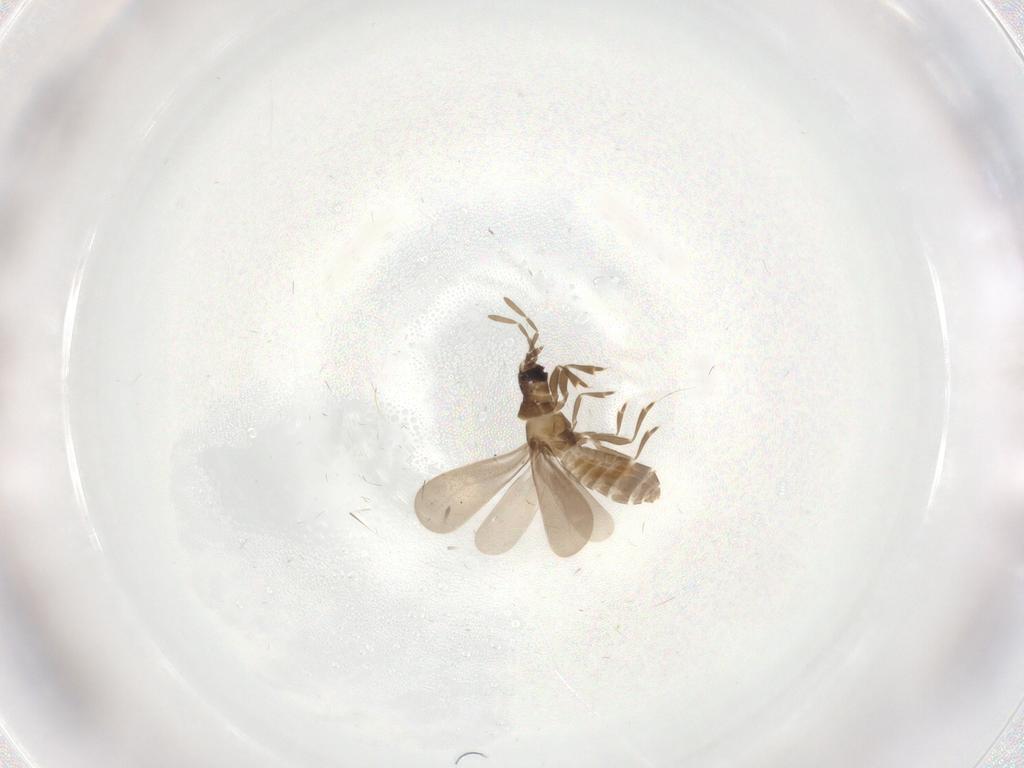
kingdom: Animalia
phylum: Arthropoda
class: Insecta
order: Hemiptera
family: Enicocephalidae
